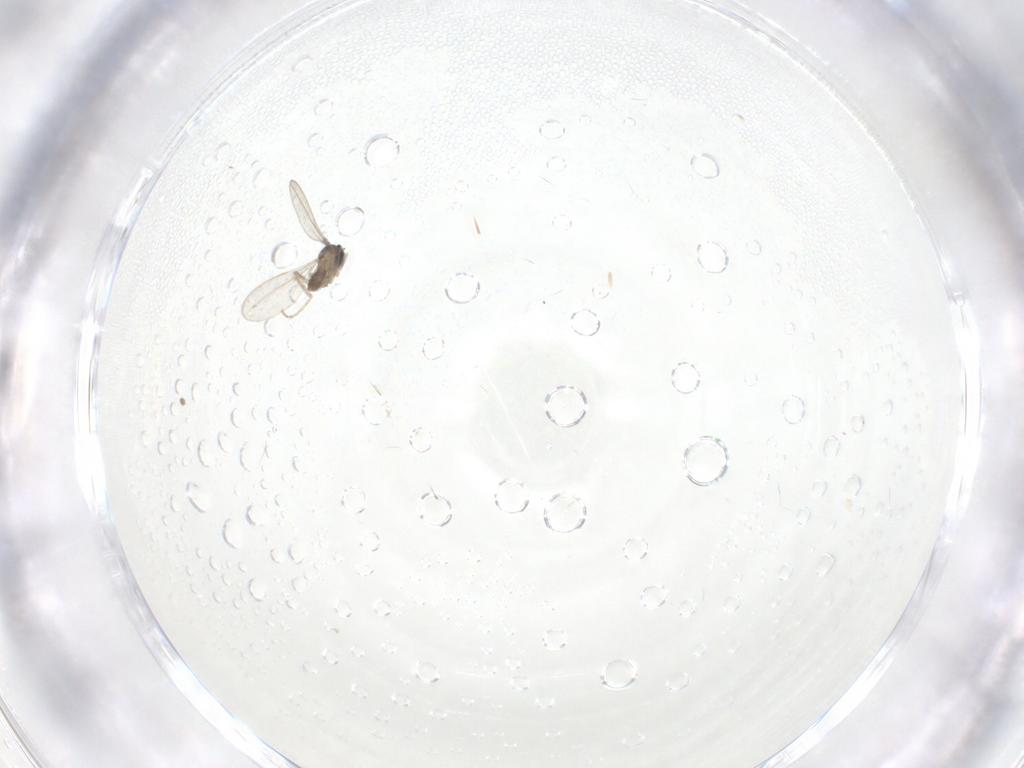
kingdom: Animalia
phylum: Arthropoda
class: Insecta
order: Diptera
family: Cecidomyiidae
